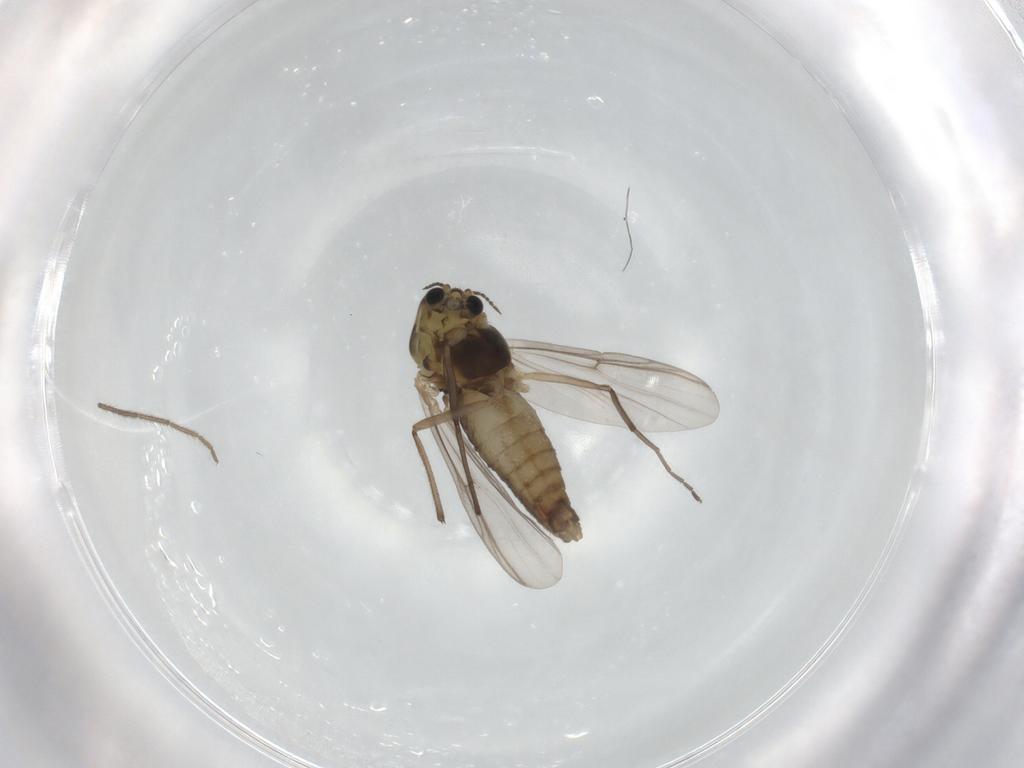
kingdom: Animalia
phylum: Arthropoda
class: Insecta
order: Diptera
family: Chironomidae
